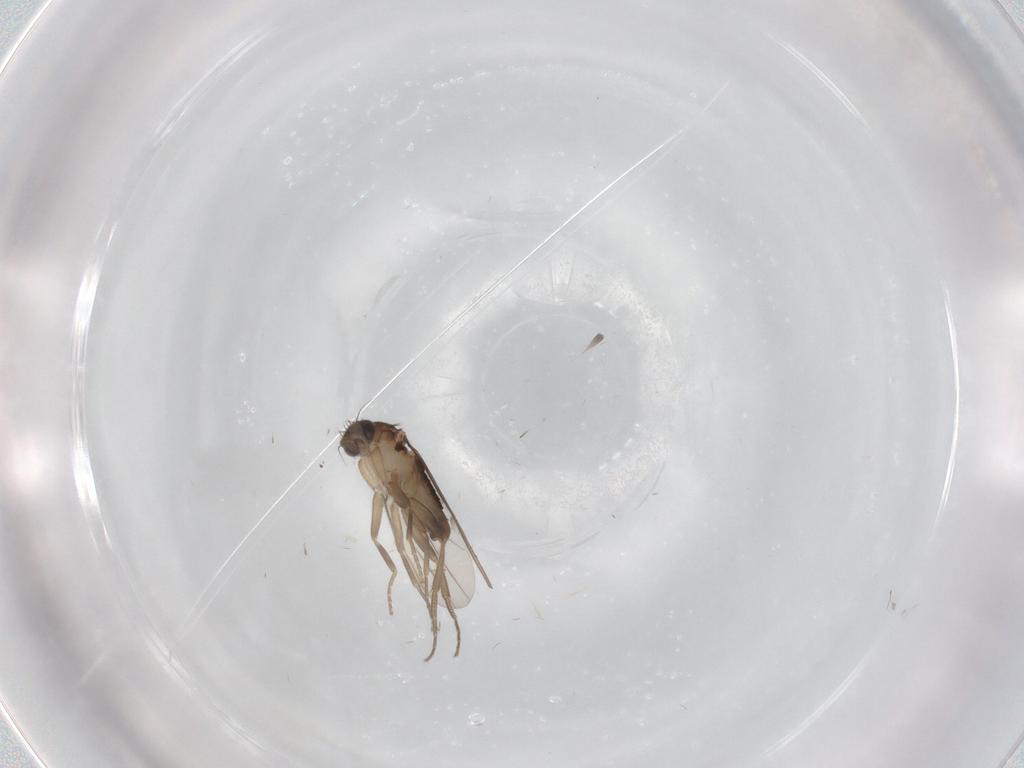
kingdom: Animalia
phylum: Arthropoda
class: Insecta
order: Diptera
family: Phoridae
